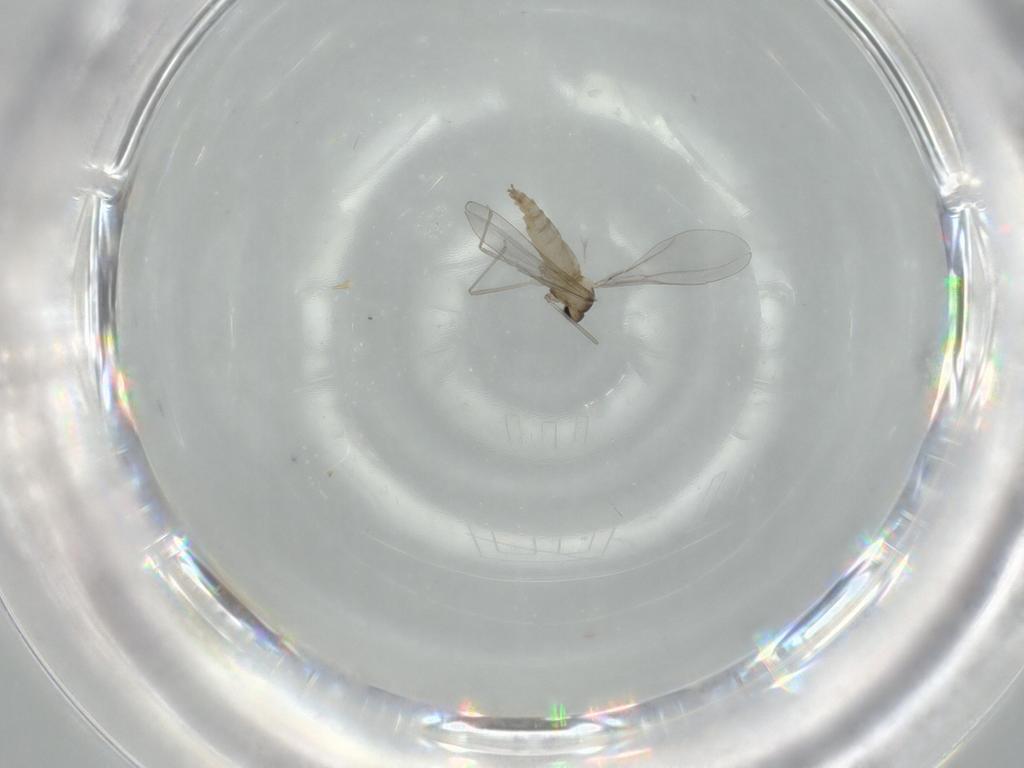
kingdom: Animalia
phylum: Arthropoda
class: Insecta
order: Diptera
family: Cecidomyiidae
